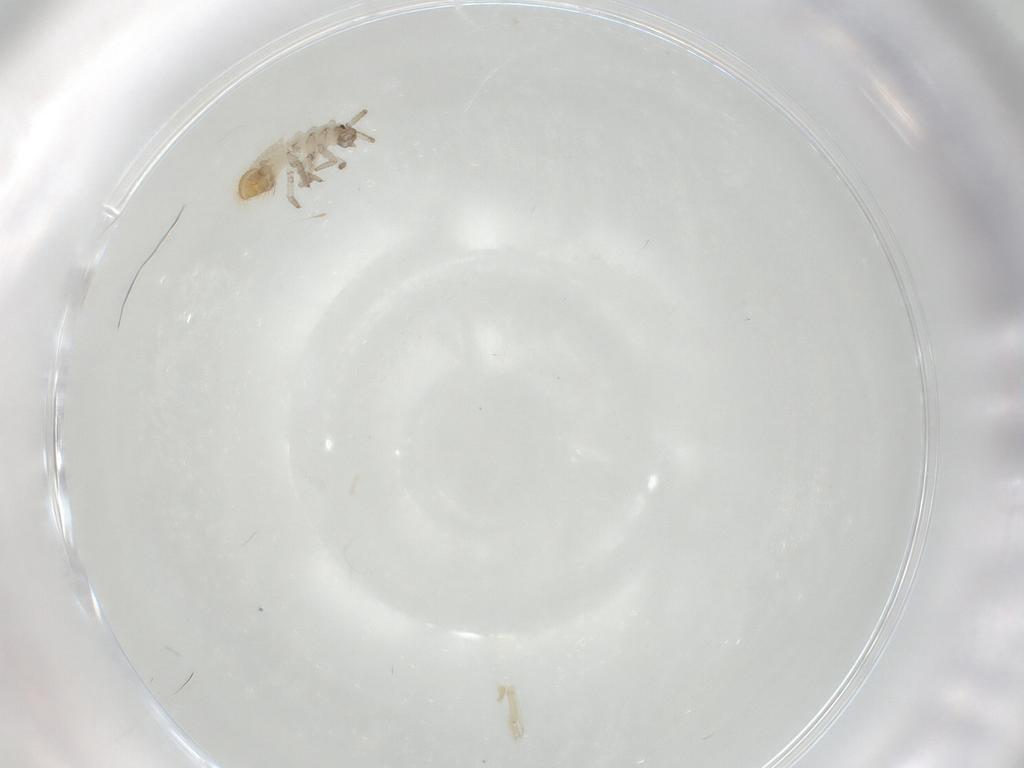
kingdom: Animalia
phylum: Arthropoda
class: Insecta
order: Coleoptera
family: Coccinellidae
